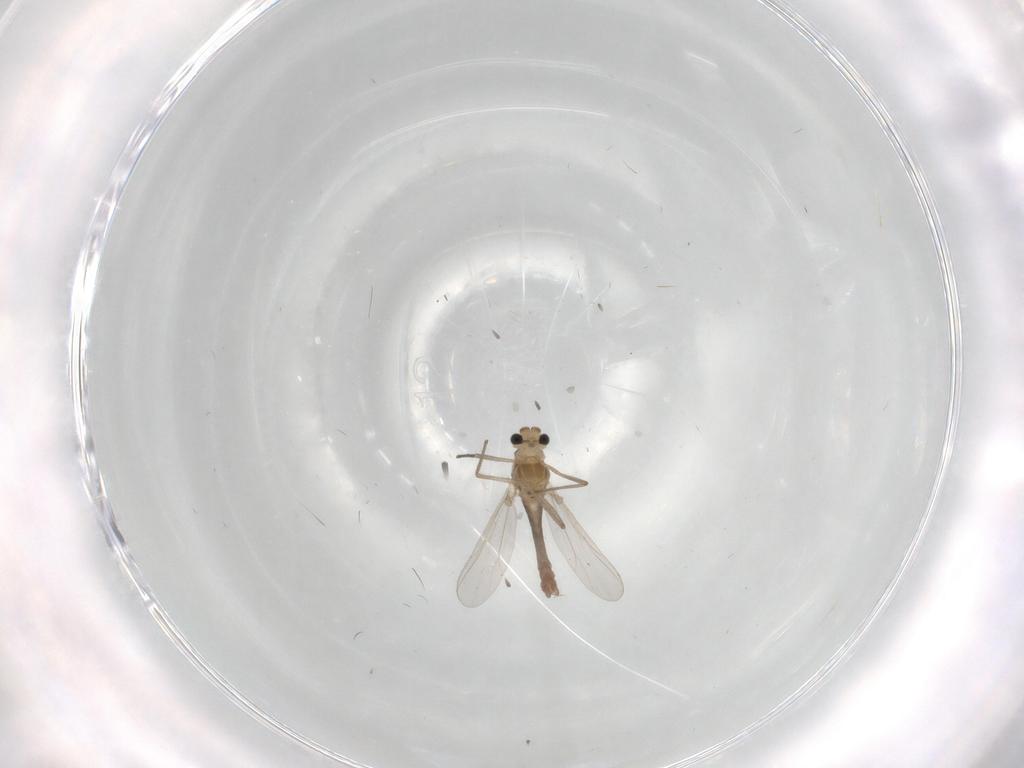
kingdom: Animalia
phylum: Arthropoda
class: Insecta
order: Diptera
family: Chironomidae
